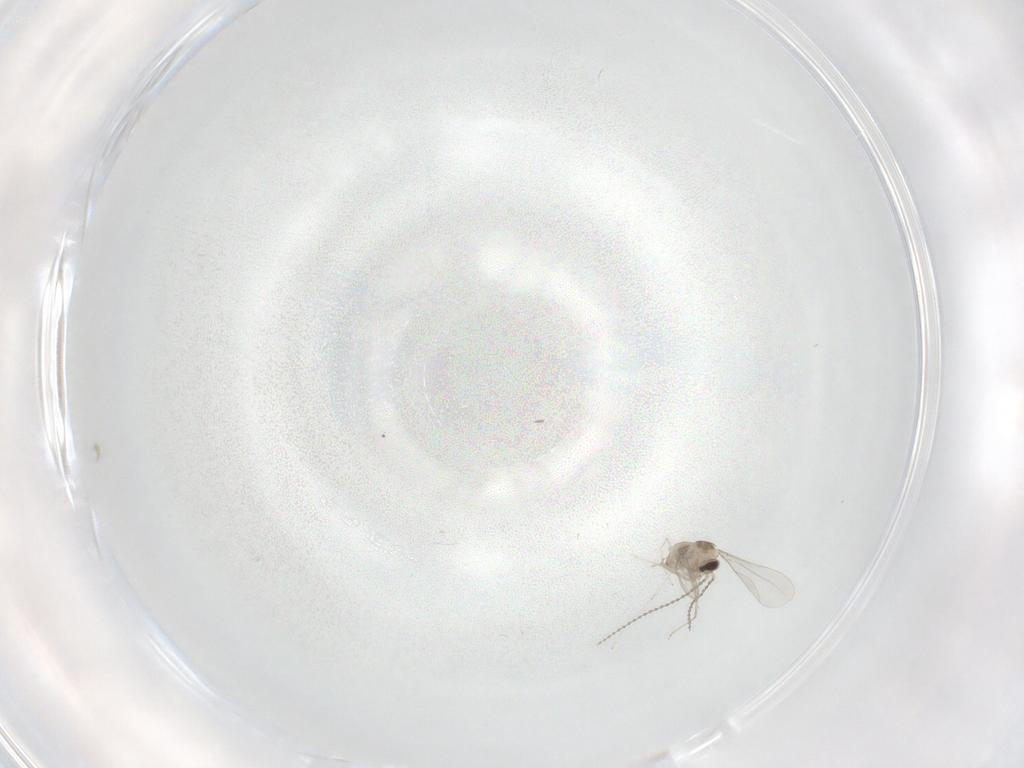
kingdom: Animalia
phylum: Arthropoda
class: Insecta
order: Diptera
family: Cecidomyiidae
